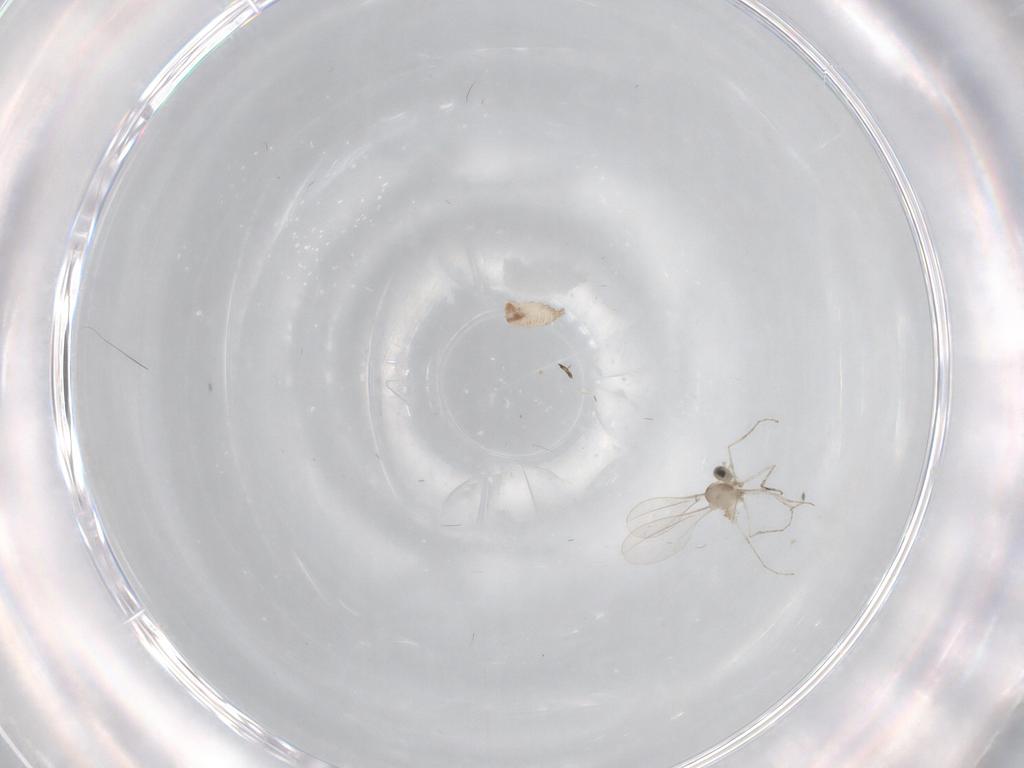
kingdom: Animalia
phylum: Arthropoda
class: Insecta
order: Diptera
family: Cecidomyiidae
